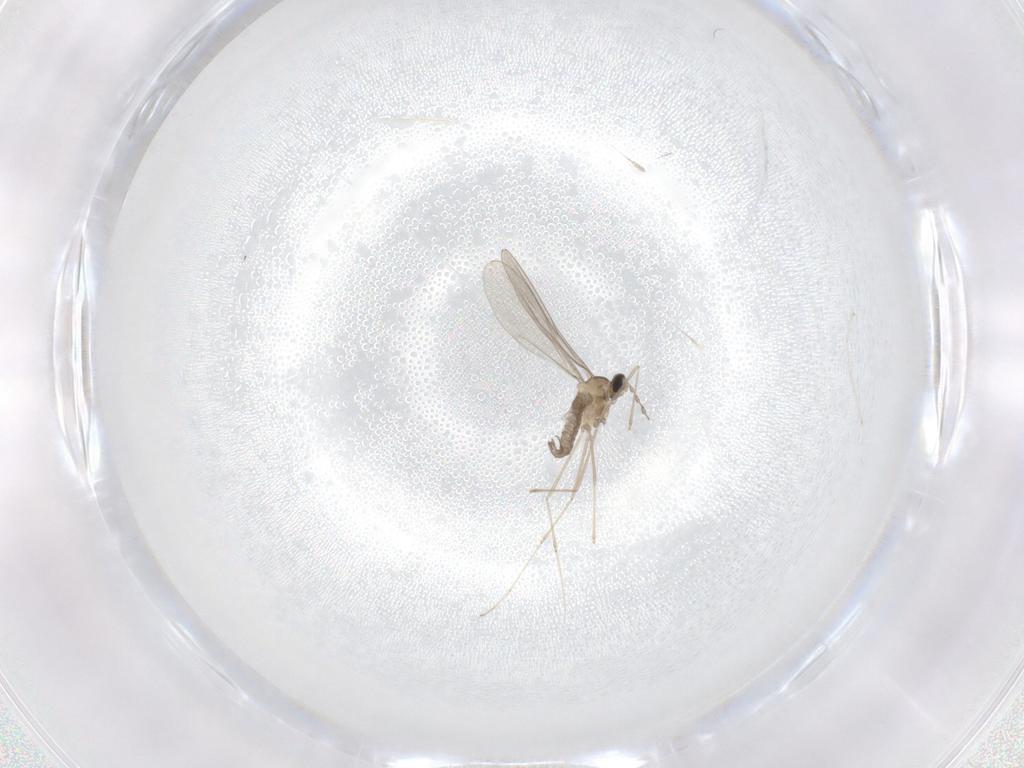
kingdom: Animalia
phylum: Arthropoda
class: Insecta
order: Diptera
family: Cecidomyiidae
